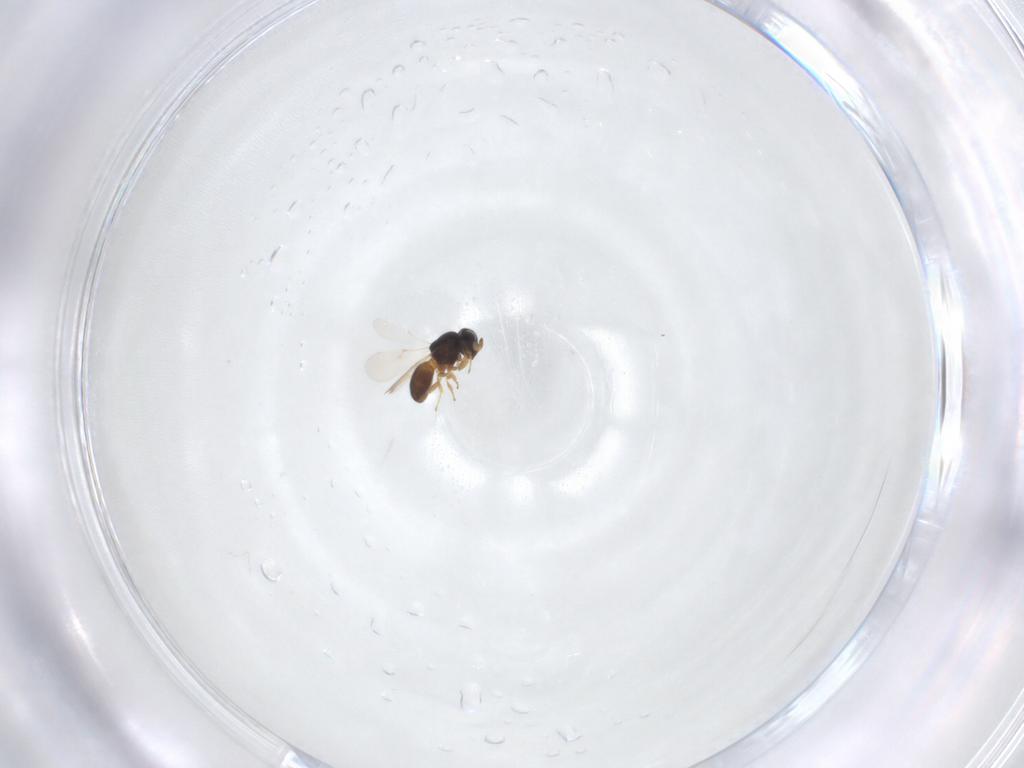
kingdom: Animalia
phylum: Arthropoda
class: Insecta
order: Hymenoptera
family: Scelionidae
